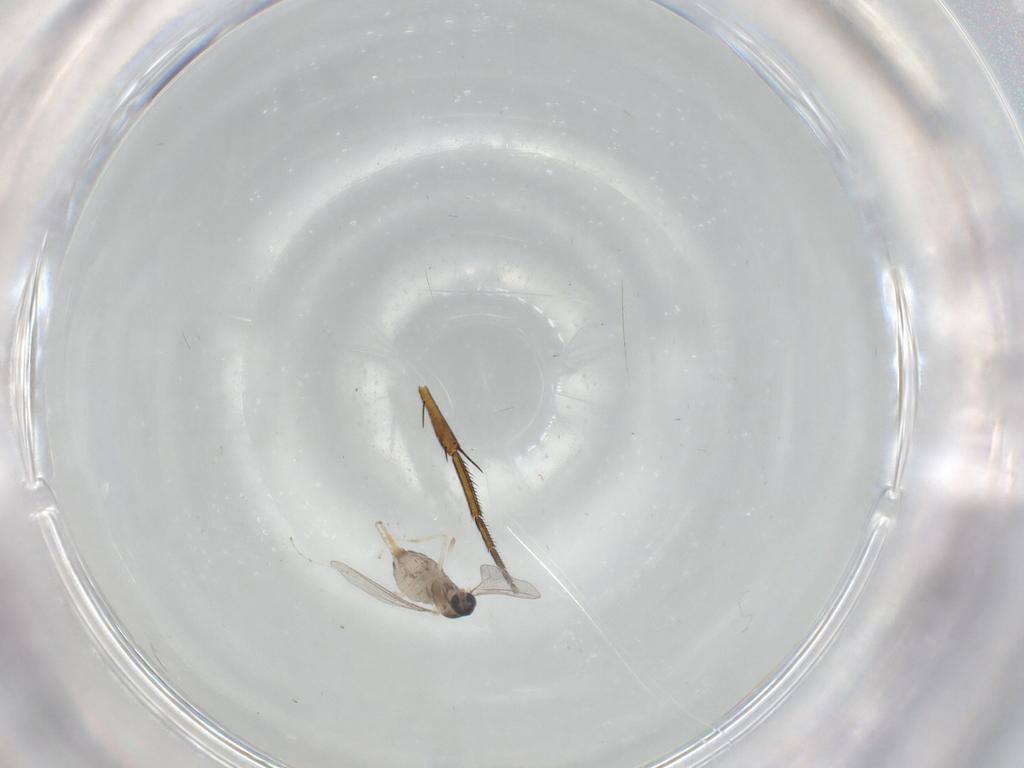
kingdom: Animalia
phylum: Arthropoda
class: Insecta
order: Diptera
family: Cecidomyiidae
